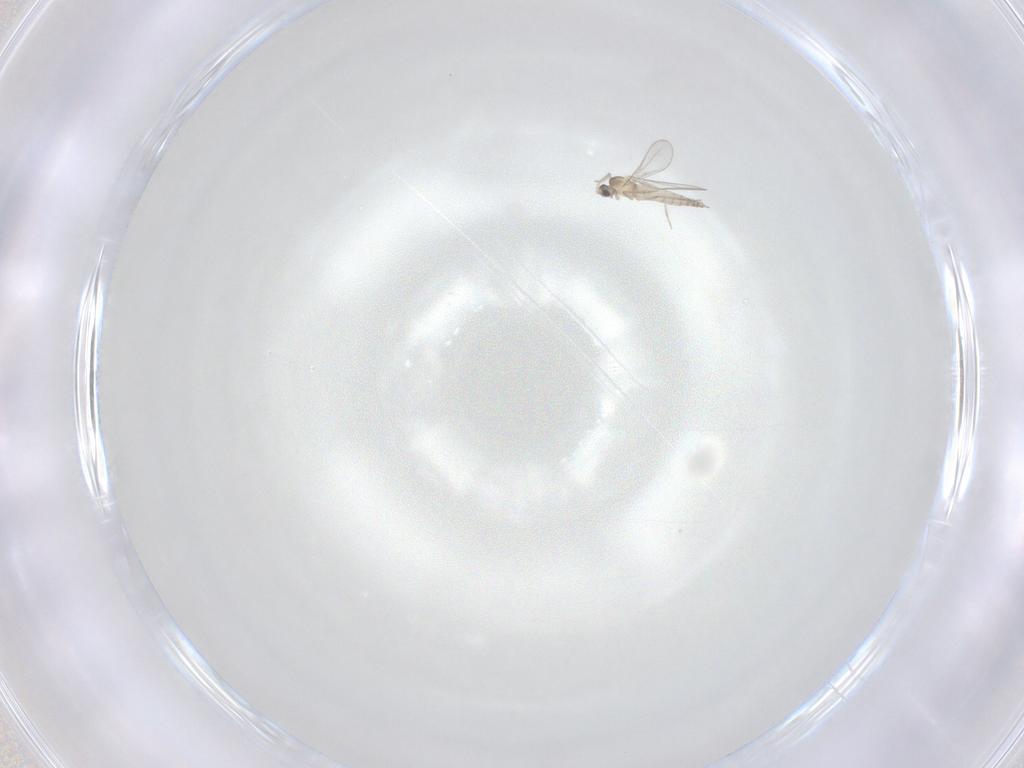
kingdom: Animalia
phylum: Arthropoda
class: Insecta
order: Diptera
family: Cecidomyiidae
